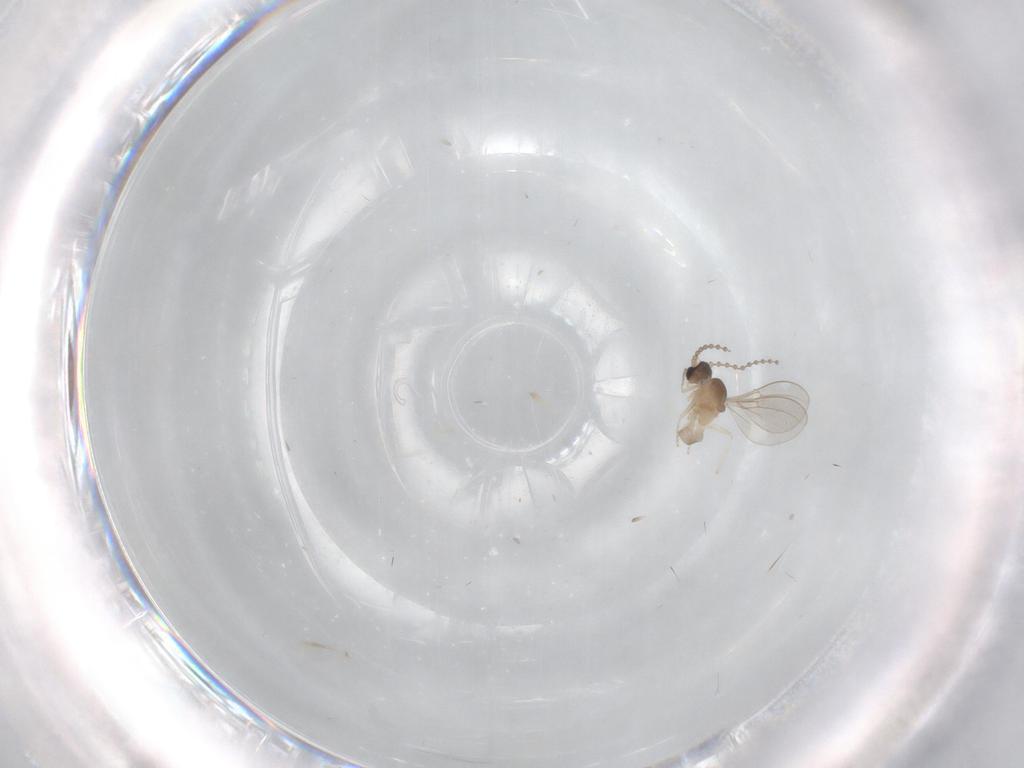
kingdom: Animalia
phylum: Arthropoda
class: Insecta
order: Diptera
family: Cecidomyiidae
